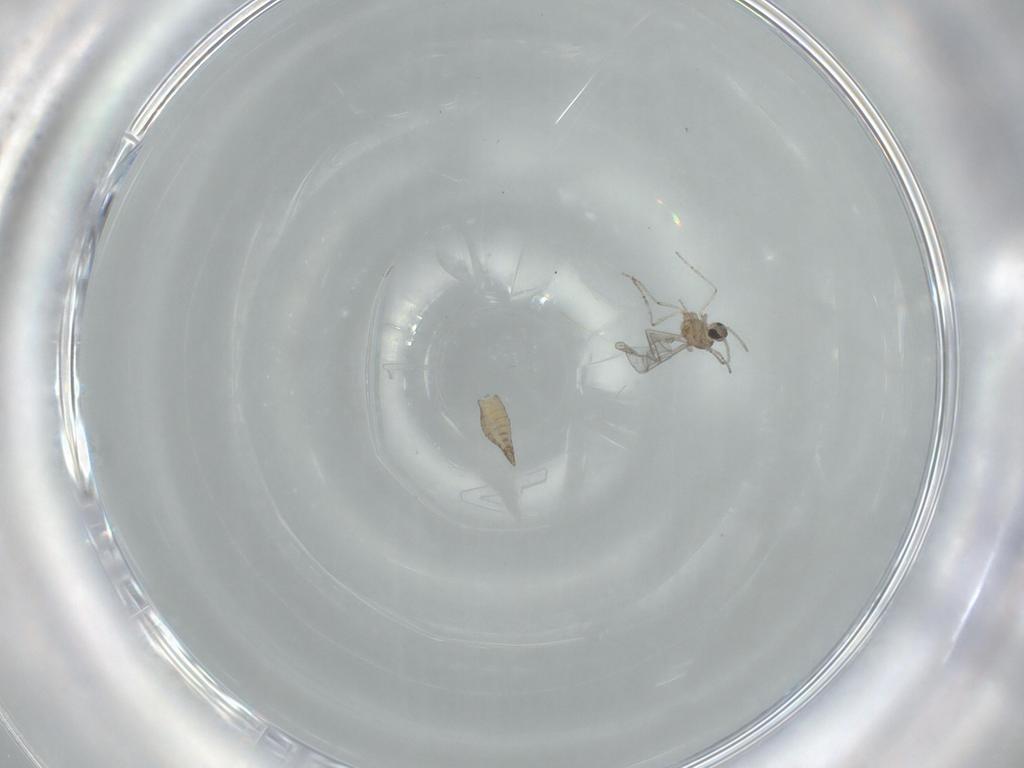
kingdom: Animalia
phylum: Arthropoda
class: Insecta
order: Diptera
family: Cecidomyiidae
